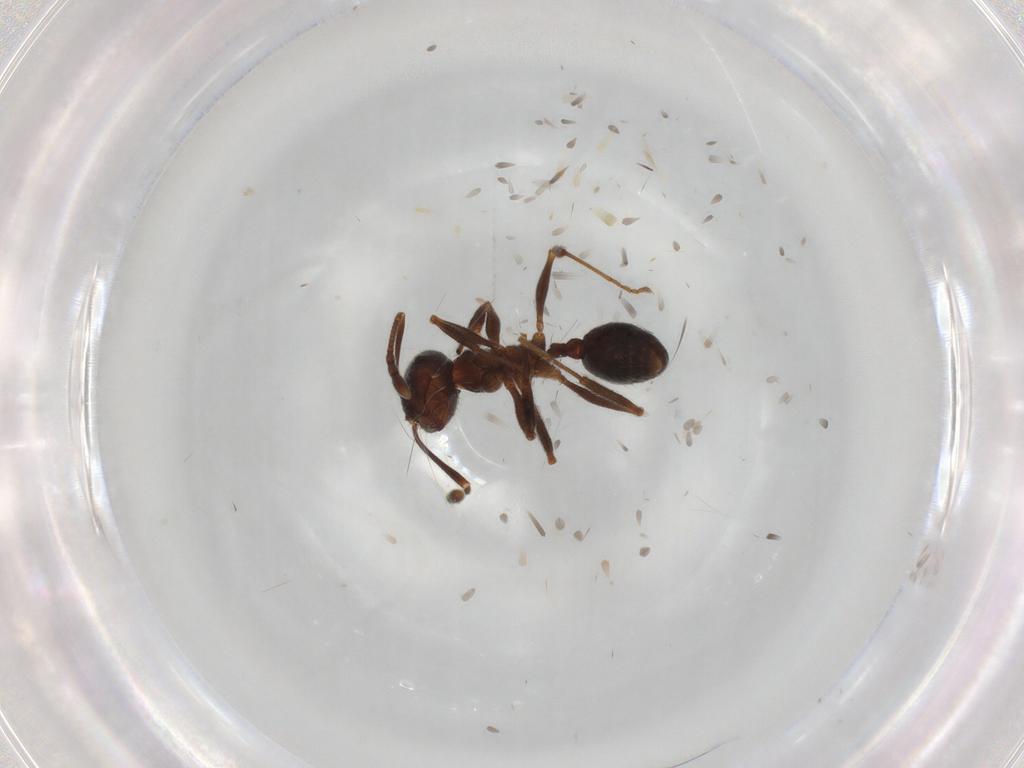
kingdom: Animalia
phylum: Arthropoda
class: Insecta
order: Hymenoptera
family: Formicidae
